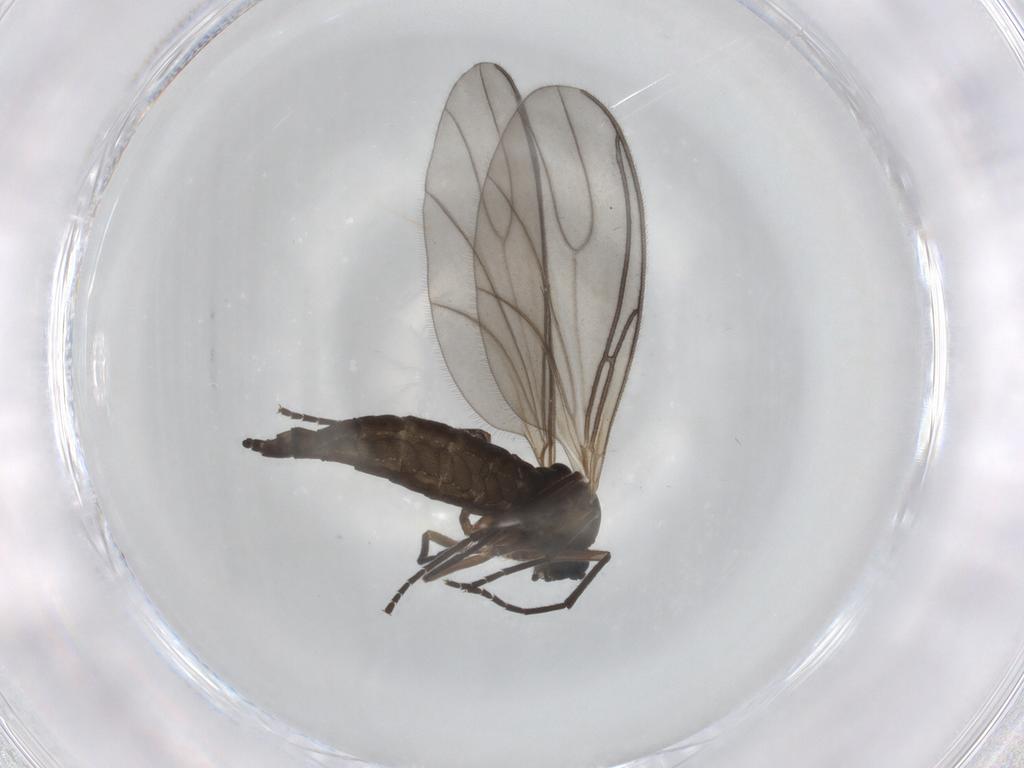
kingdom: Animalia
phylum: Arthropoda
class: Insecta
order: Diptera
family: Sciaridae
